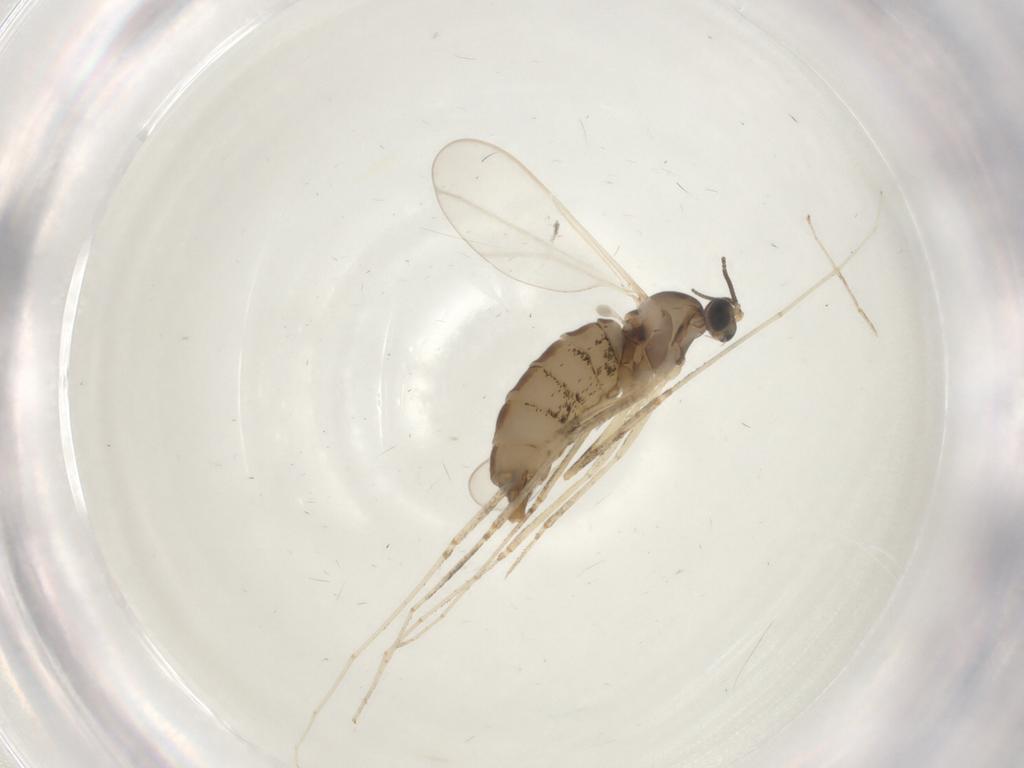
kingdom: Animalia
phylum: Arthropoda
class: Insecta
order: Diptera
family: Cecidomyiidae
